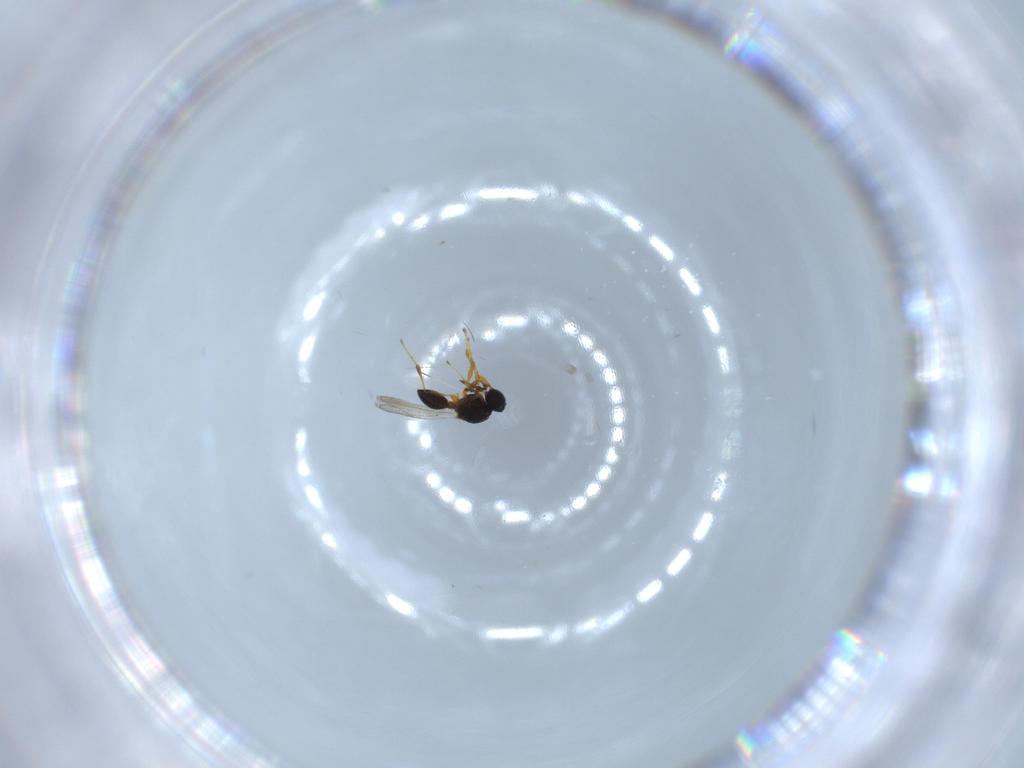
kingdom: Animalia
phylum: Arthropoda
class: Insecta
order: Hymenoptera
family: Platygastridae
